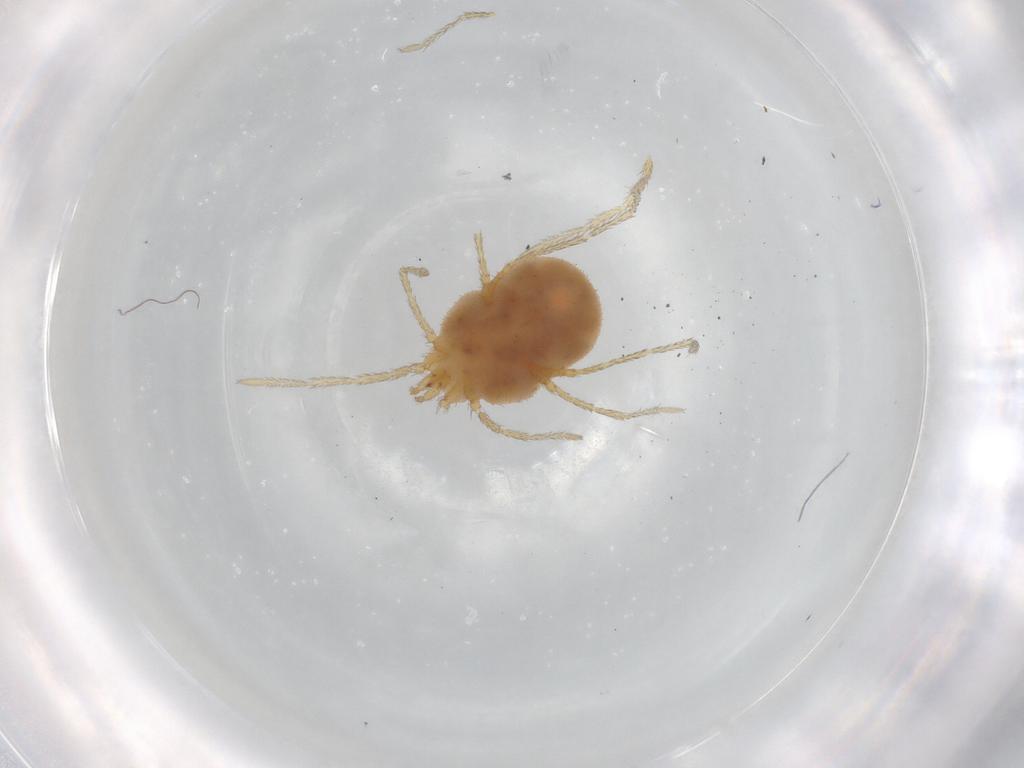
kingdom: Animalia
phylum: Arthropoda
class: Arachnida
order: Trombidiformes
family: Erythraeidae
